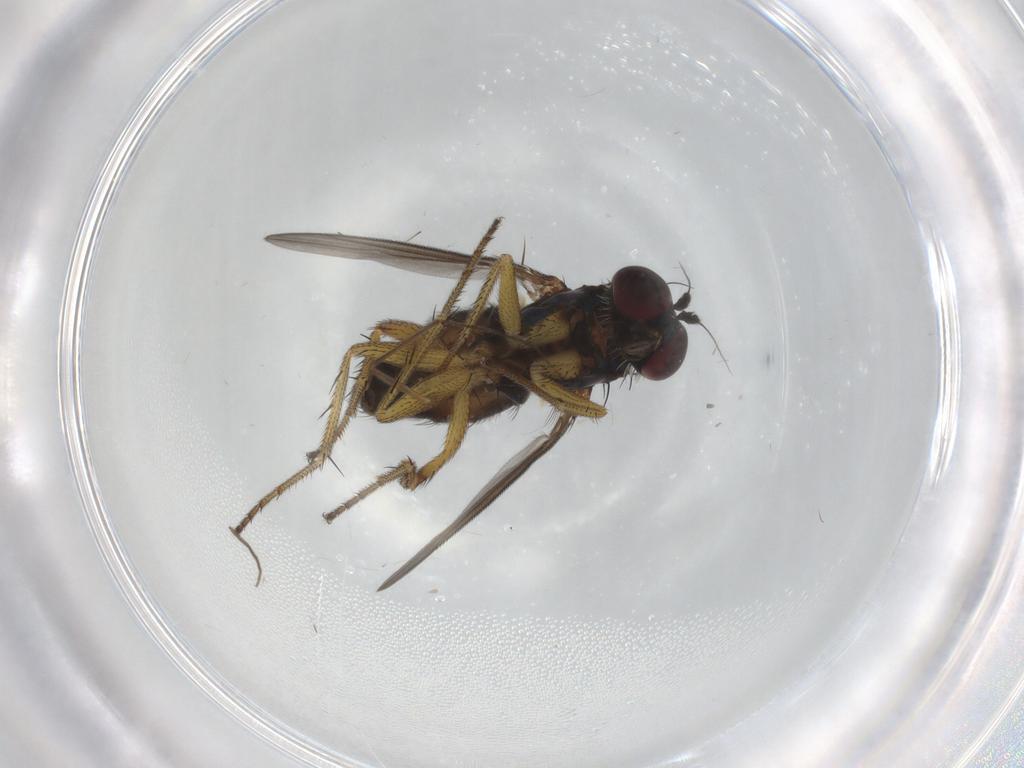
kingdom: Animalia
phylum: Arthropoda
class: Insecta
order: Diptera
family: Dolichopodidae
